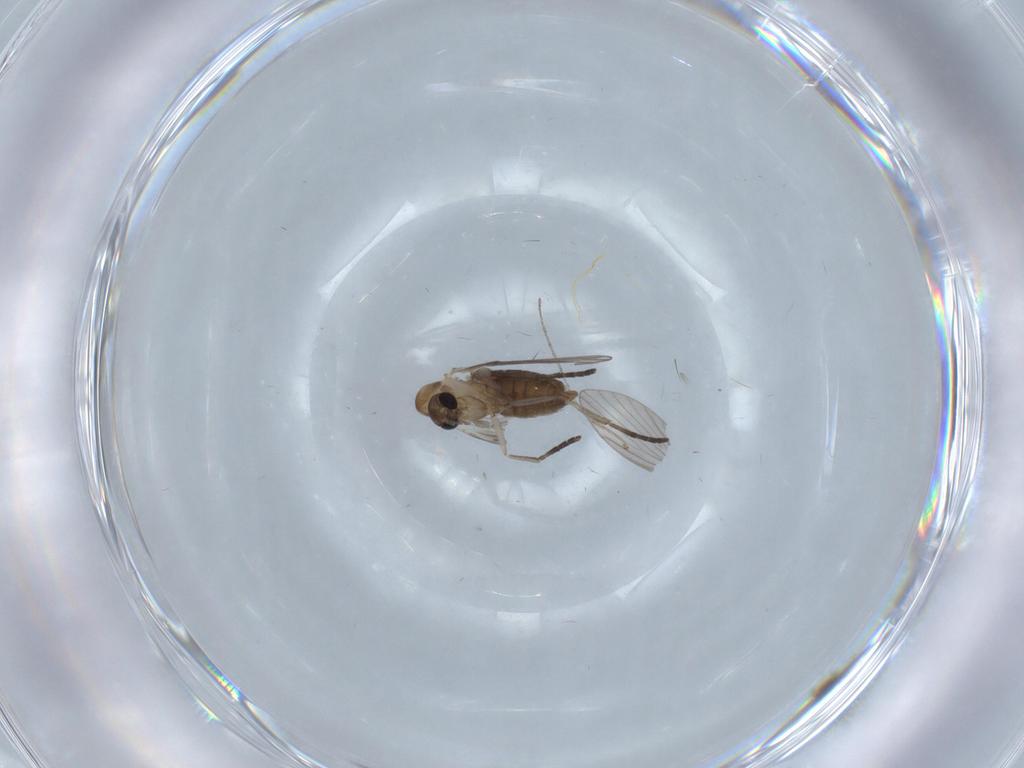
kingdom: Animalia
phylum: Arthropoda
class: Insecta
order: Diptera
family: Psychodidae
